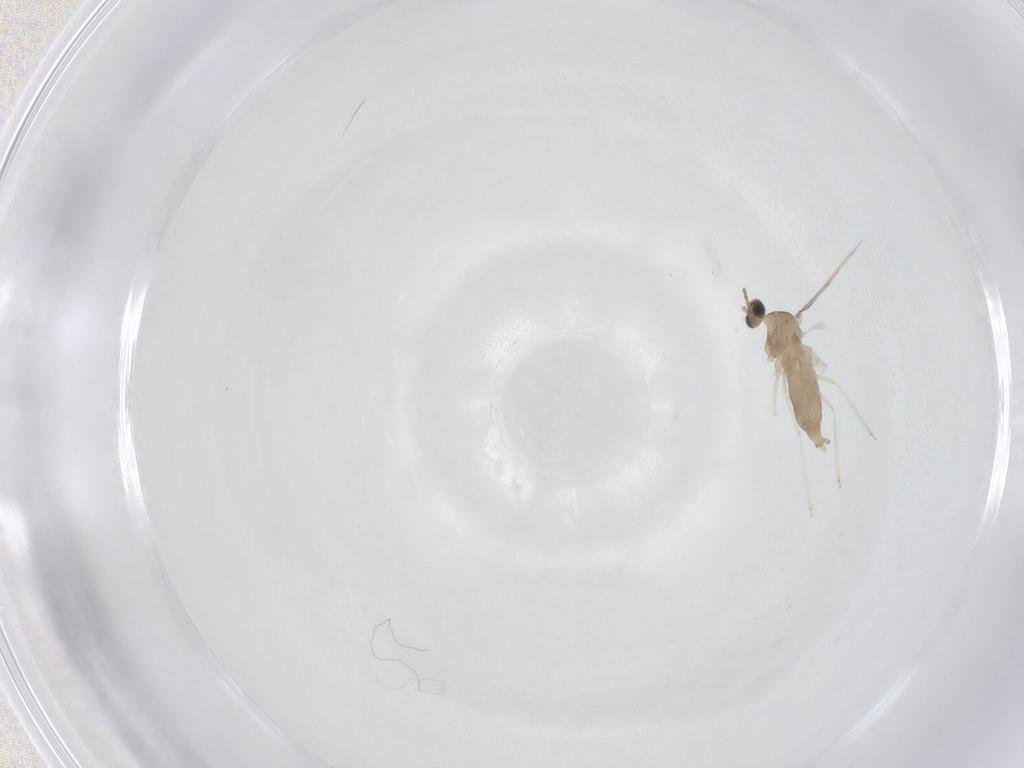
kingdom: Animalia
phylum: Arthropoda
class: Insecta
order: Diptera
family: Cecidomyiidae
